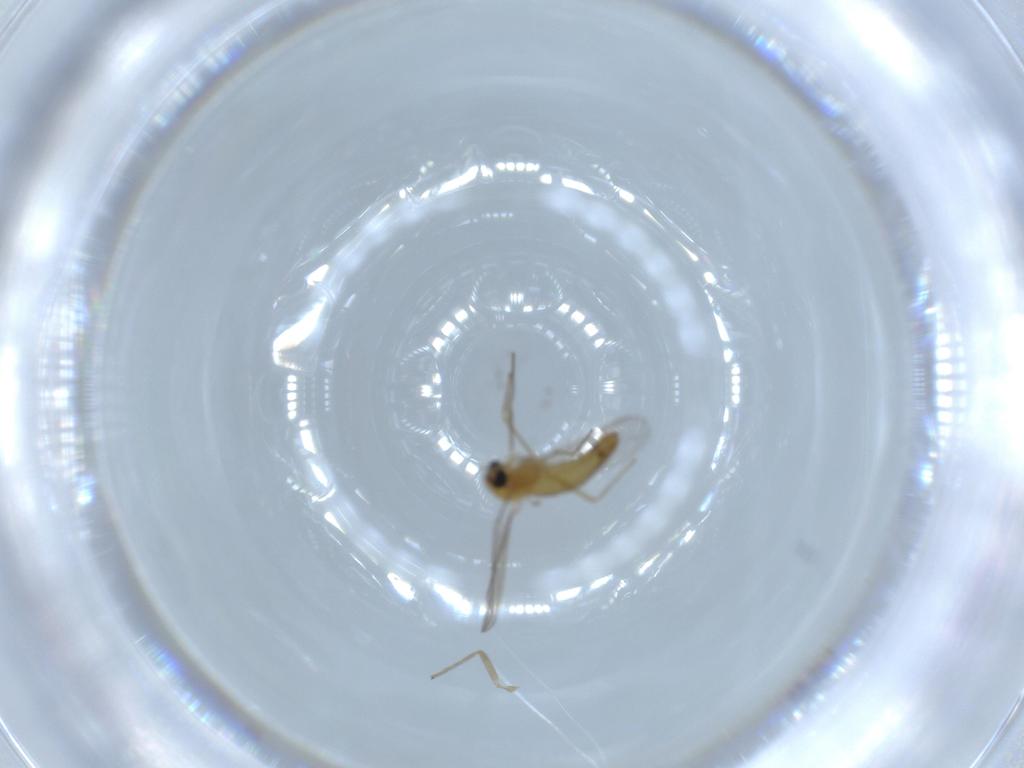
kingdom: Animalia
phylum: Arthropoda
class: Insecta
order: Diptera
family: Chironomidae
